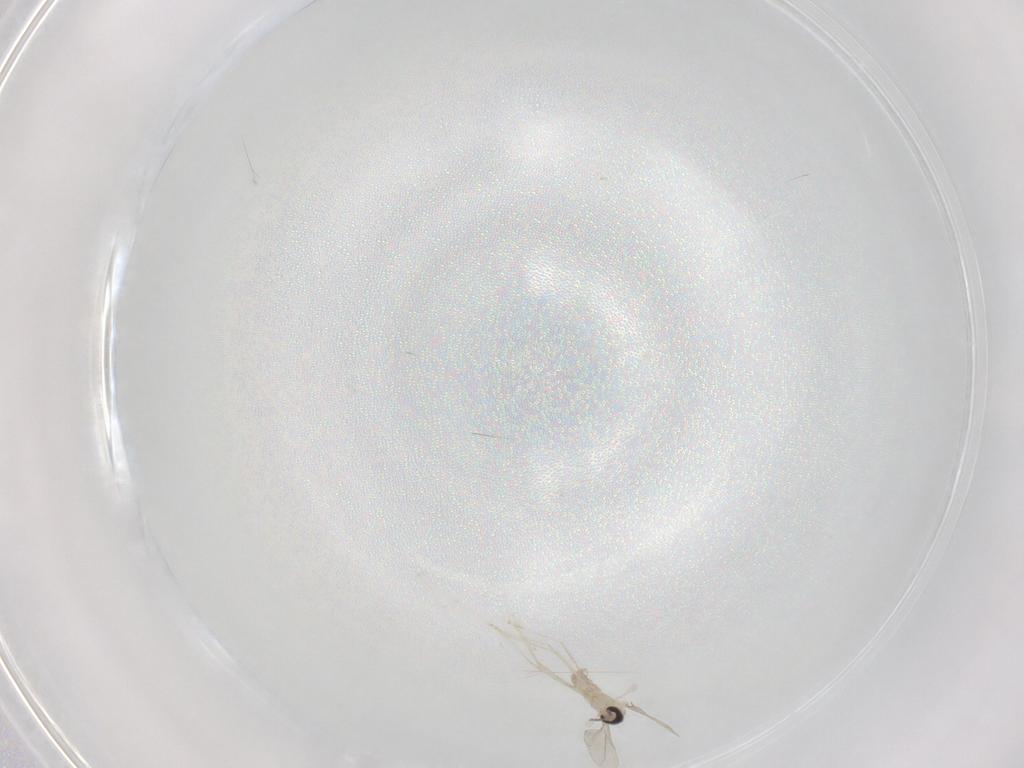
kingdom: Animalia
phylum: Arthropoda
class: Insecta
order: Diptera
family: Cecidomyiidae
